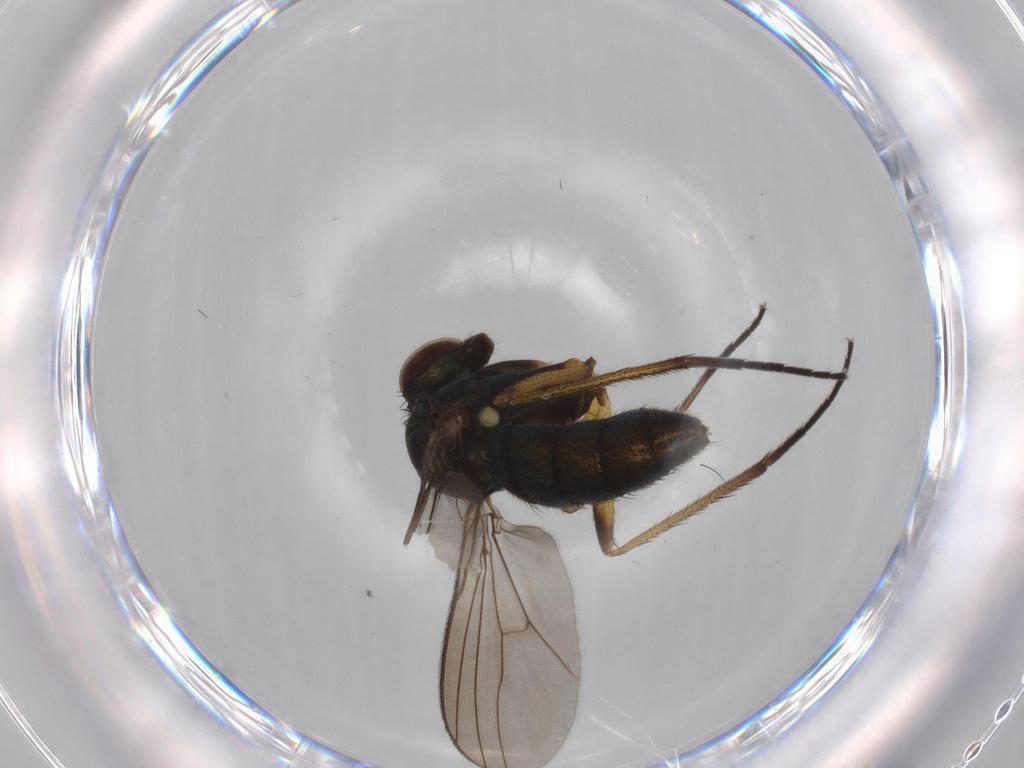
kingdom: Animalia
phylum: Arthropoda
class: Insecta
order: Diptera
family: Dolichopodidae
